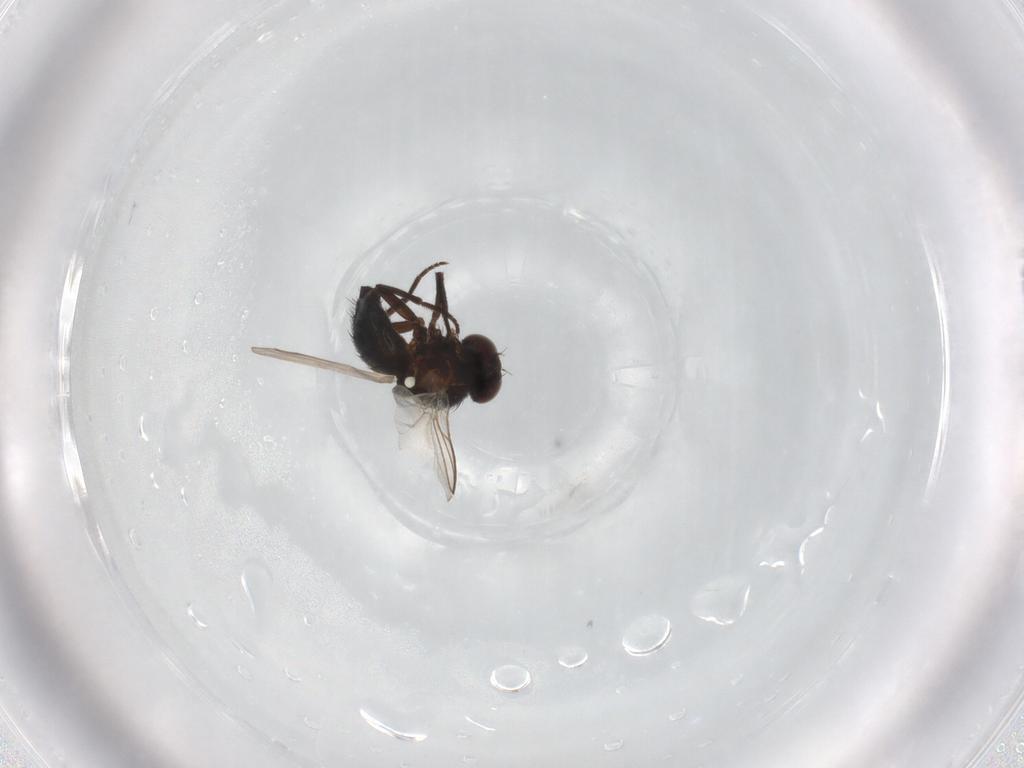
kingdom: Animalia
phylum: Arthropoda
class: Insecta
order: Diptera
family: Agromyzidae
